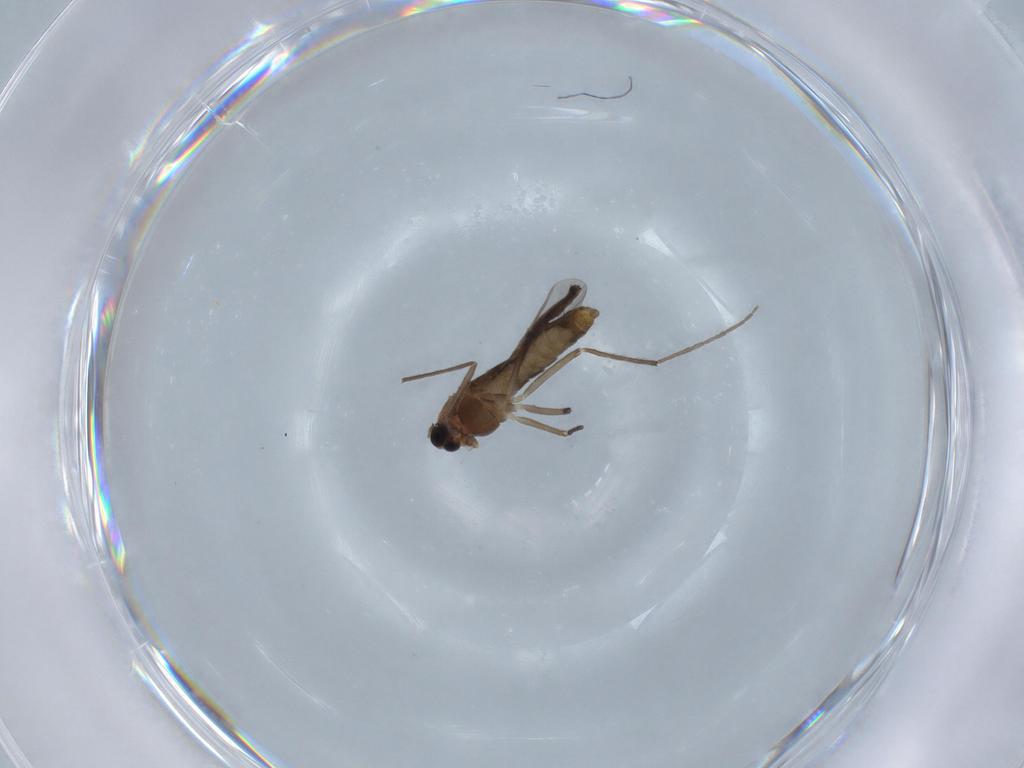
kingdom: Animalia
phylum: Arthropoda
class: Insecta
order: Diptera
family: Chironomidae
